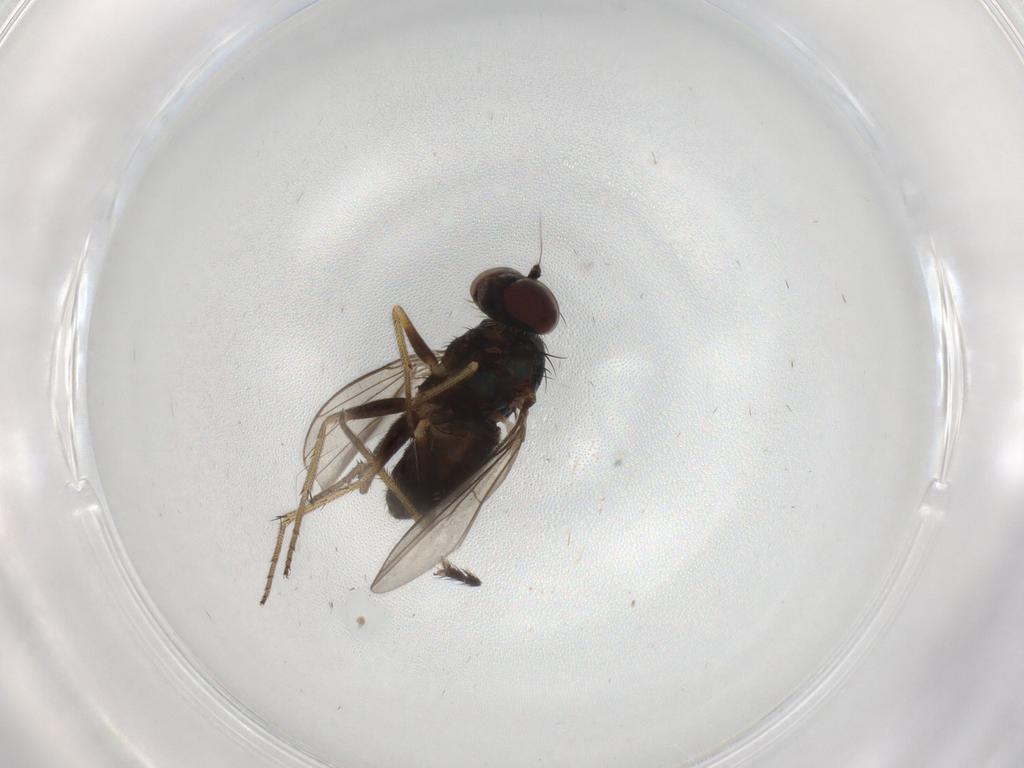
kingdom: Animalia
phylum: Arthropoda
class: Insecta
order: Diptera
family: Dolichopodidae
